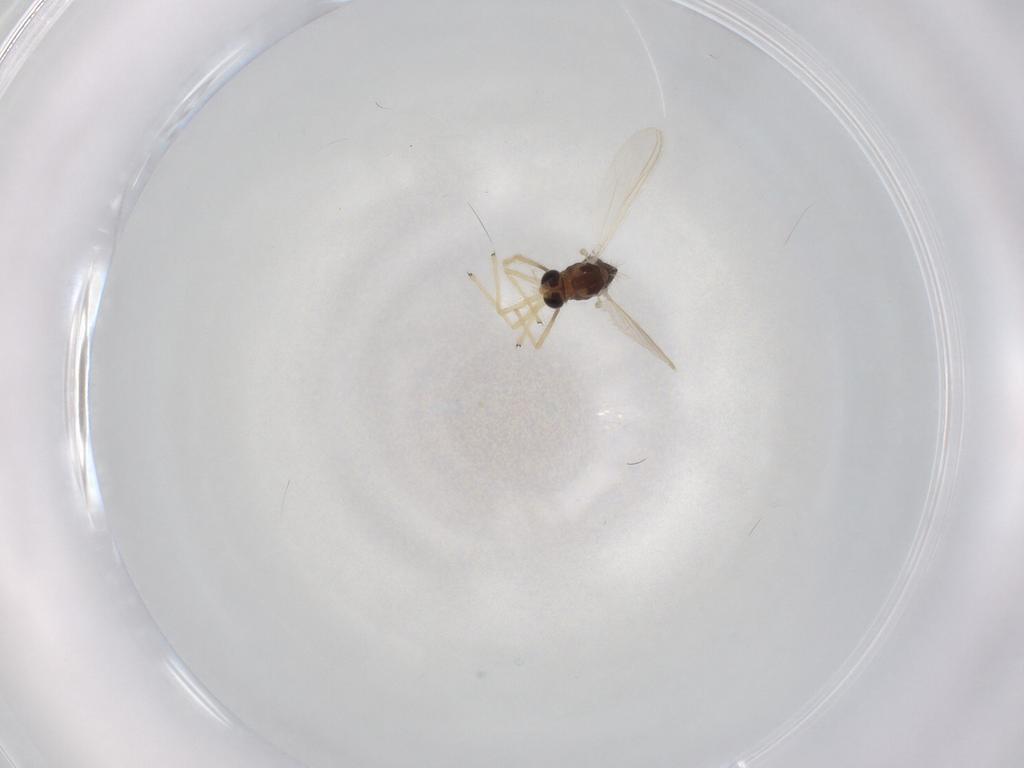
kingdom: Animalia
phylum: Arthropoda
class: Insecta
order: Diptera
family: Chironomidae
